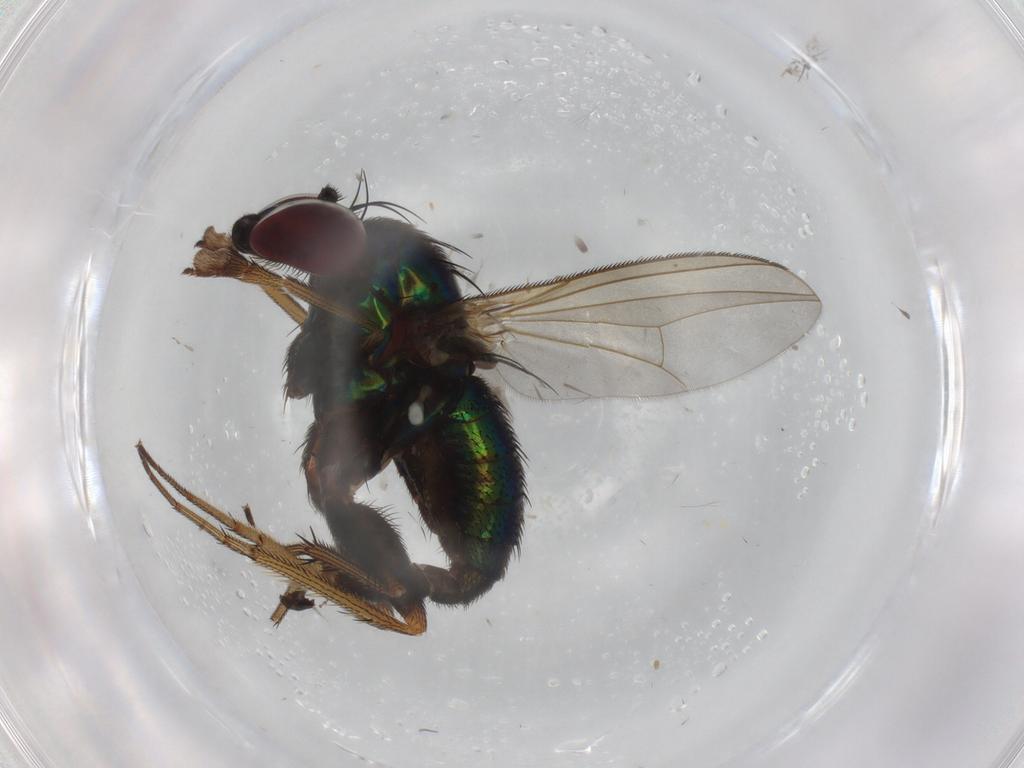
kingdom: Animalia
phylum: Arthropoda
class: Insecta
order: Diptera
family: Dolichopodidae
